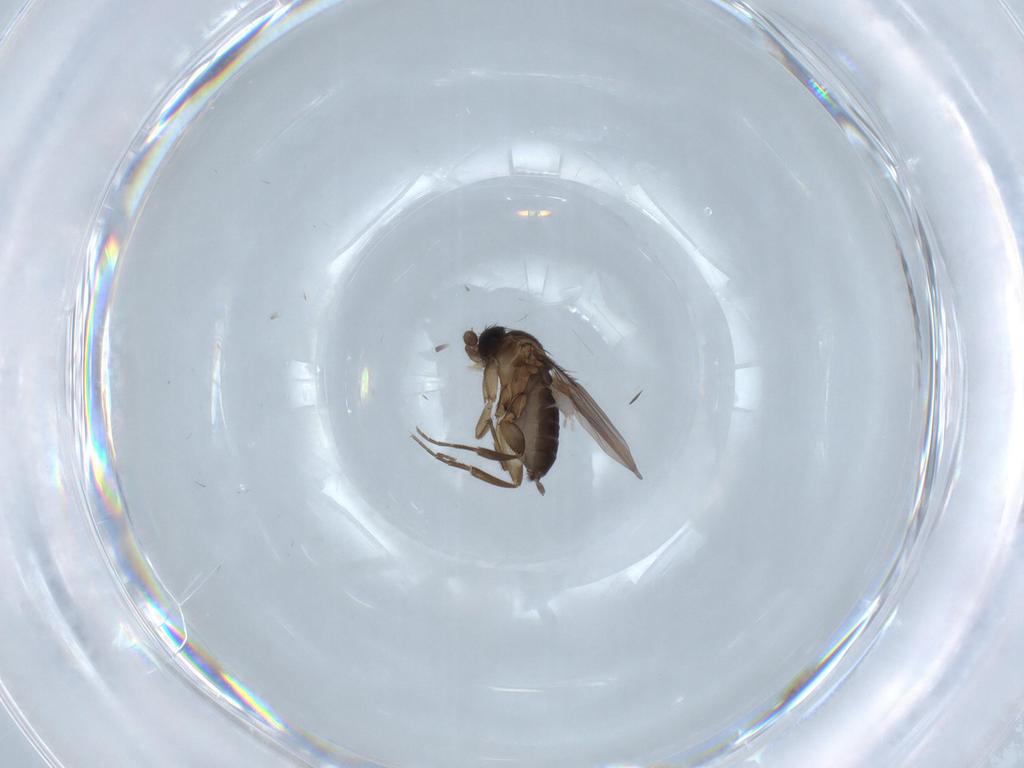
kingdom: Animalia
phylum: Arthropoda
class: Insecta
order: Diptera
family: Phoridae
